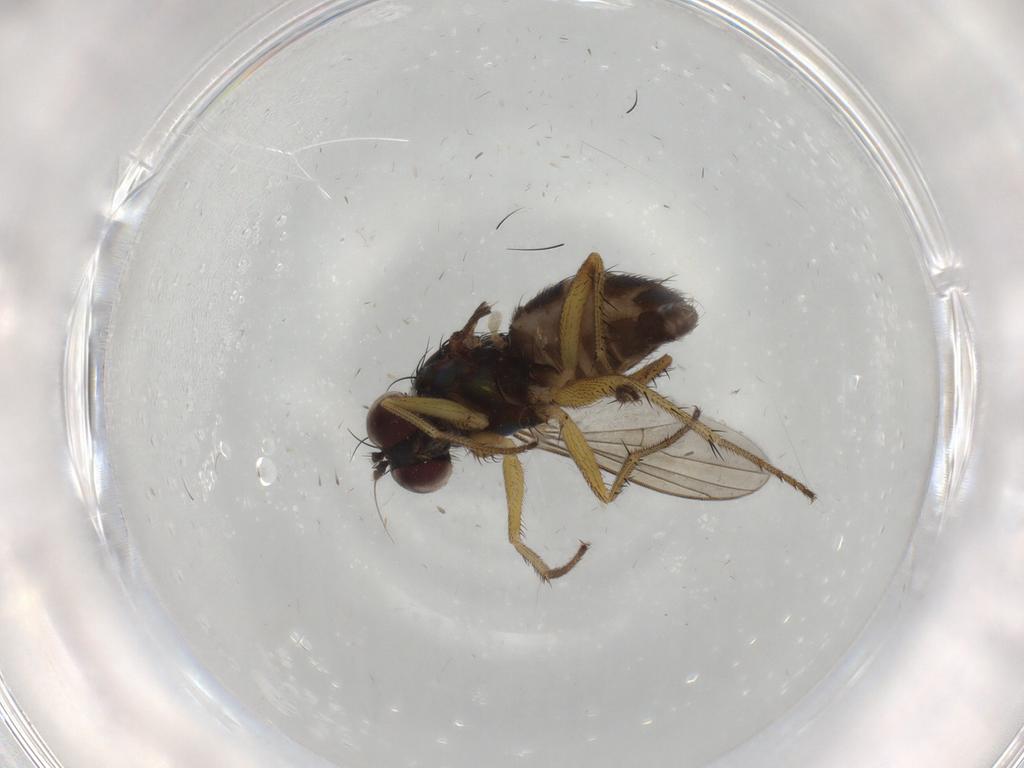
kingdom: Animalia
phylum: Arthropoda
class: Insecta
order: Diptera
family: Dolichopodidae
